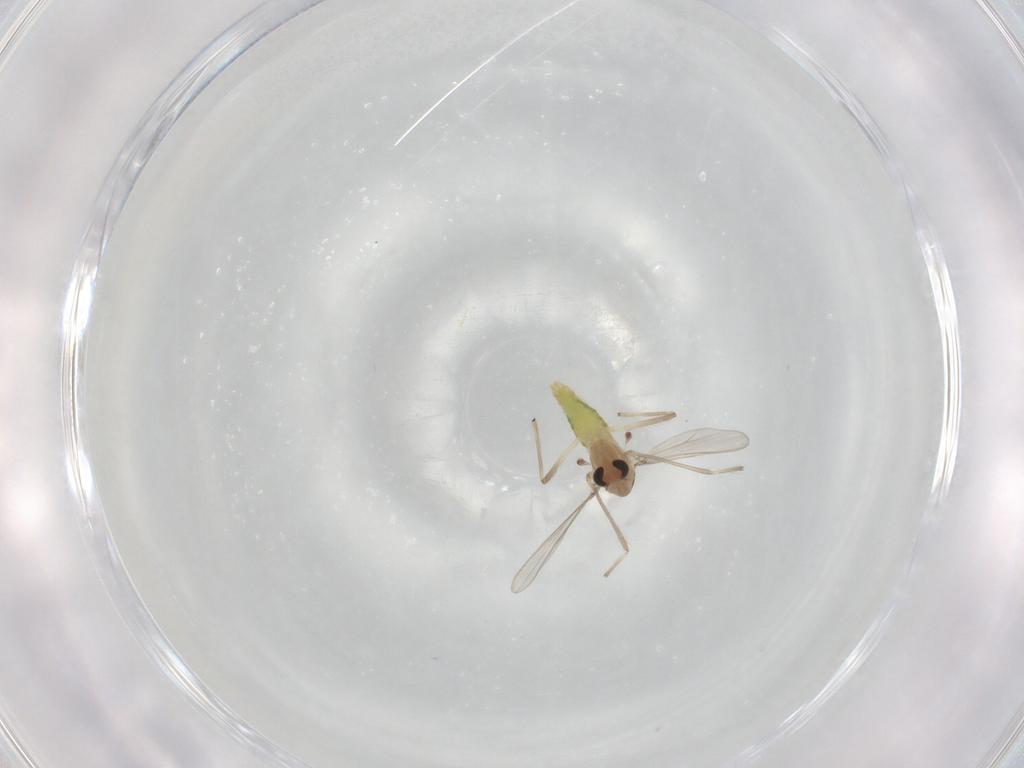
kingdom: Animalia
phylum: Arthropoda
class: Insecta
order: Diptera
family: Chironomidae
